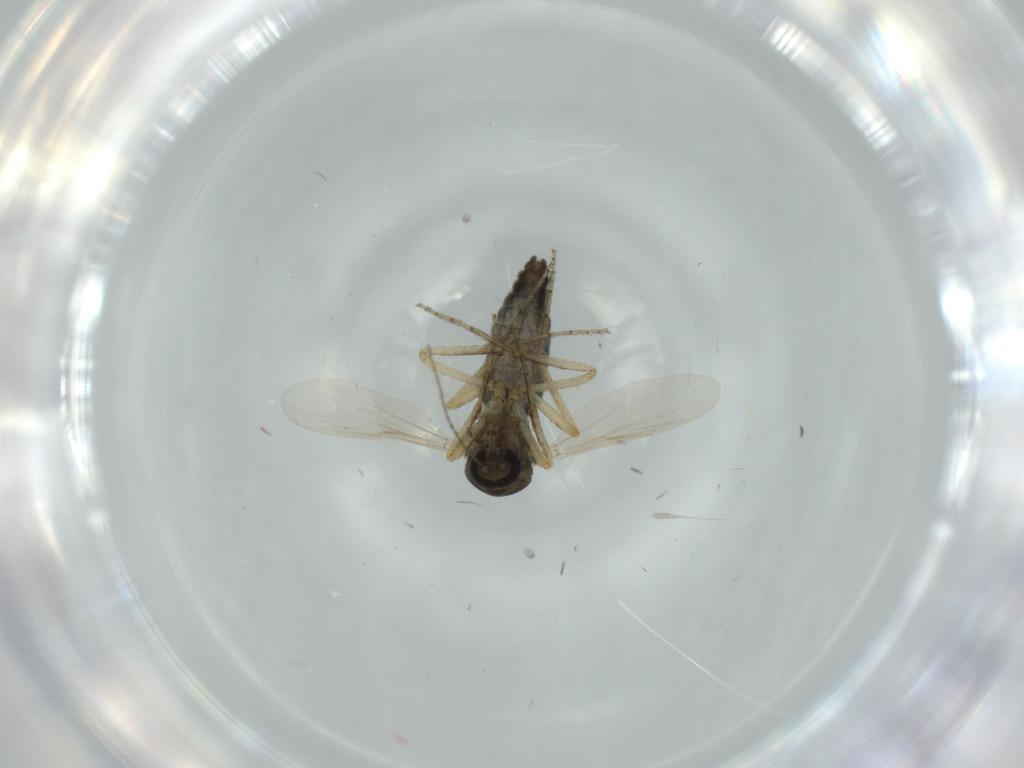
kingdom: Animalia
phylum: Arthropoda
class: Insecta
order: Diptera
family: Ceratopogonidae
